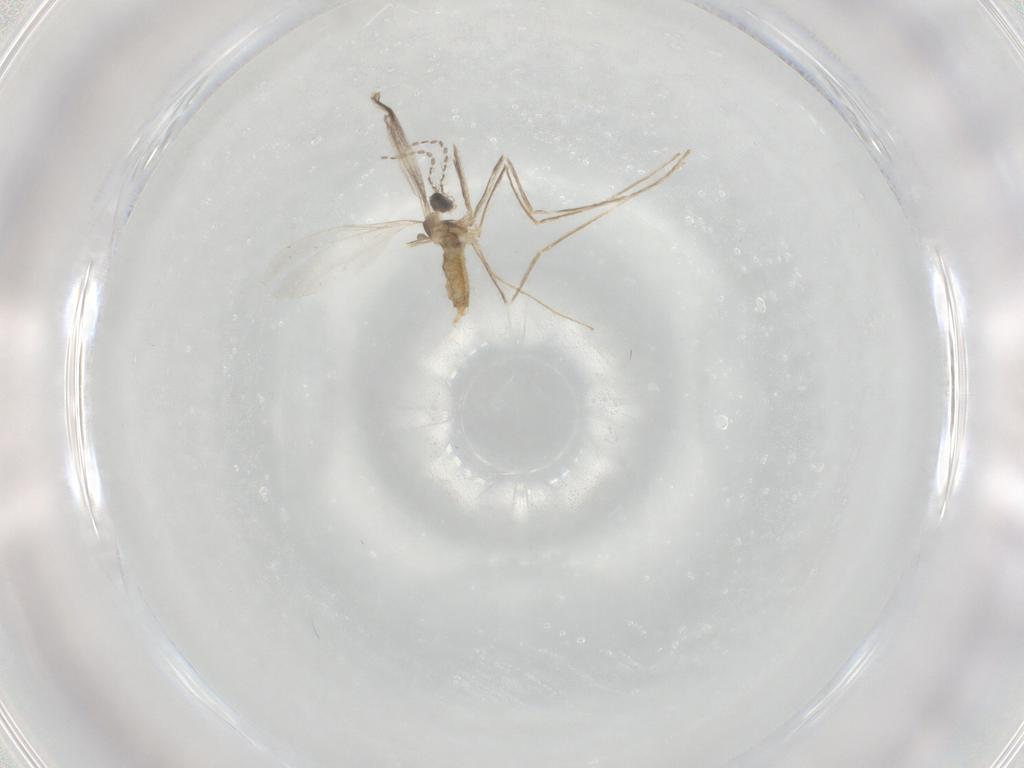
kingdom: Animalia
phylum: Arthropoda
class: Insecta
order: Diptera
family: Cecidomyiidae
